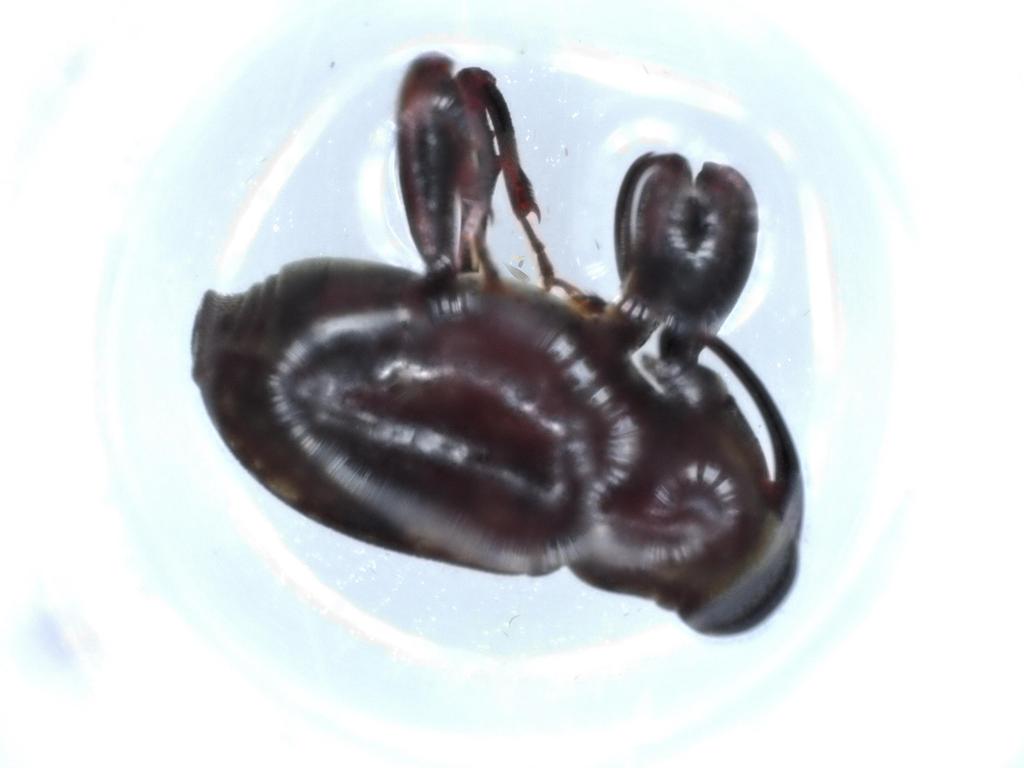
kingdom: Animalia
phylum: Arthropoda
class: Insecta
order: Coleoptera
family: Curculionidae
